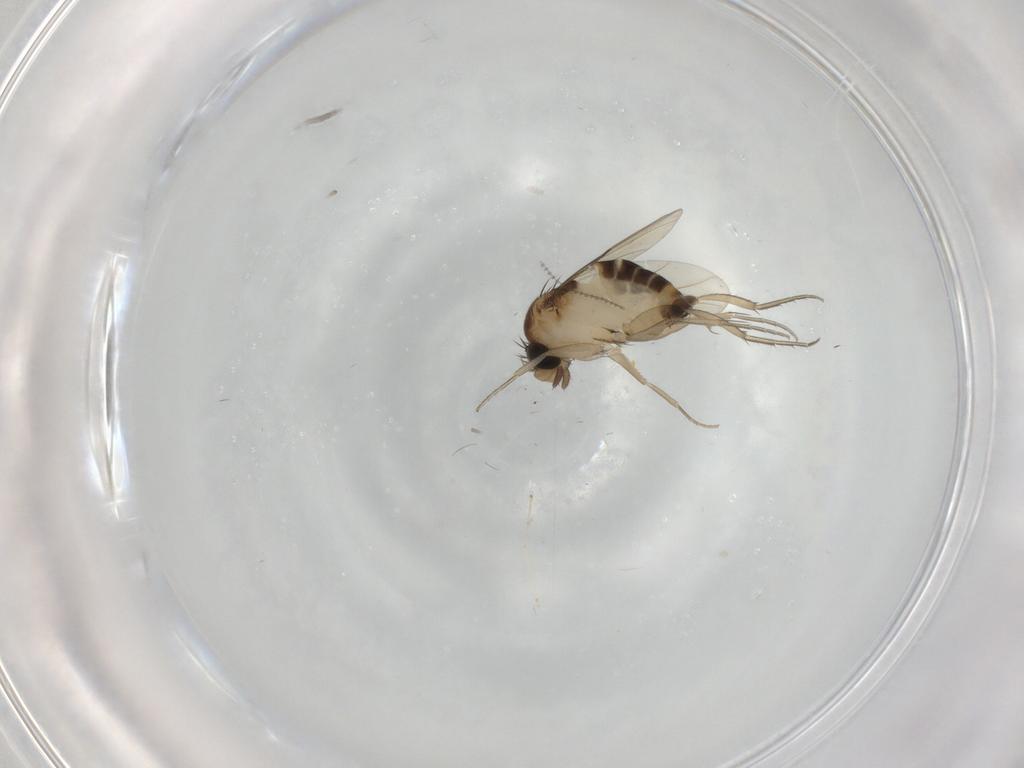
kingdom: Animalia
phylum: Arthropoda
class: Insecta
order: Diptera
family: Phoridae
